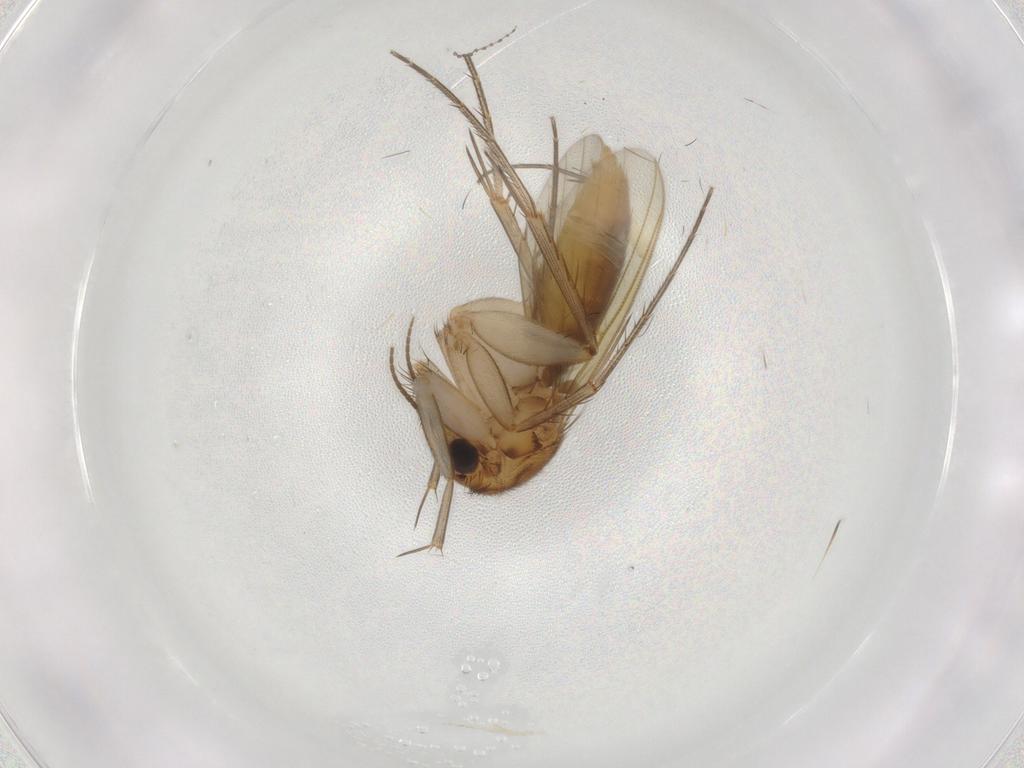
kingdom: Animalia
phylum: Arthropoda
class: Insecta
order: Diptera
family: Mycetophilidae
